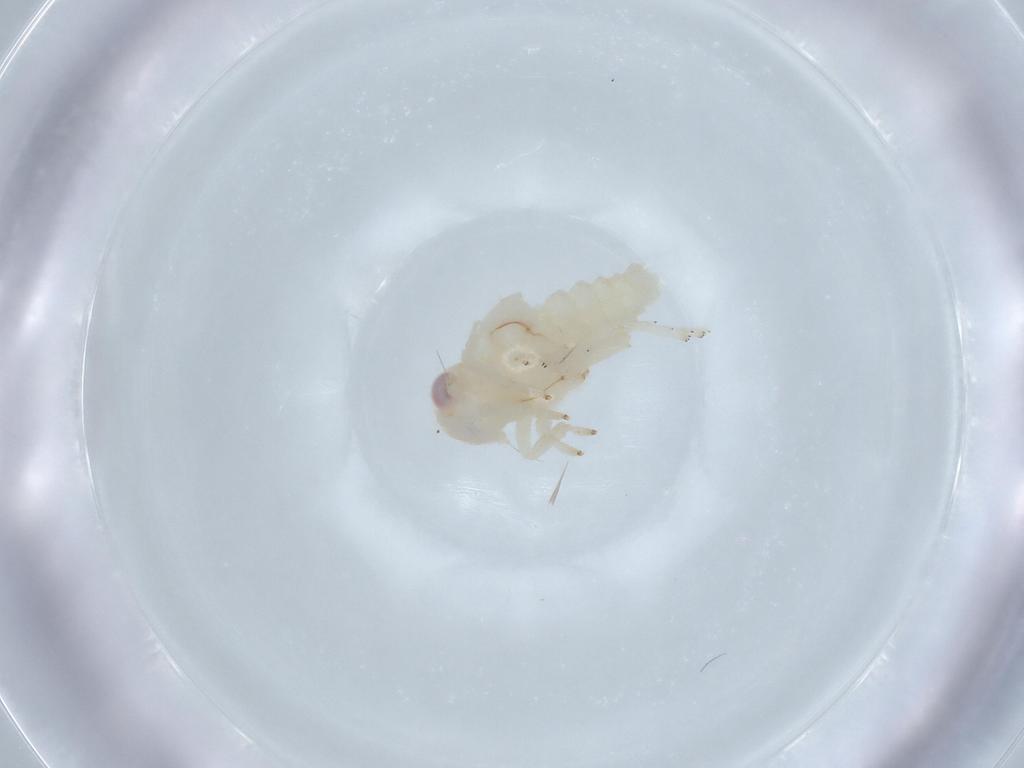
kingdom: Animalia
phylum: Arthropoda
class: Insecta
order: Hemiptera
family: Nogodinidae
